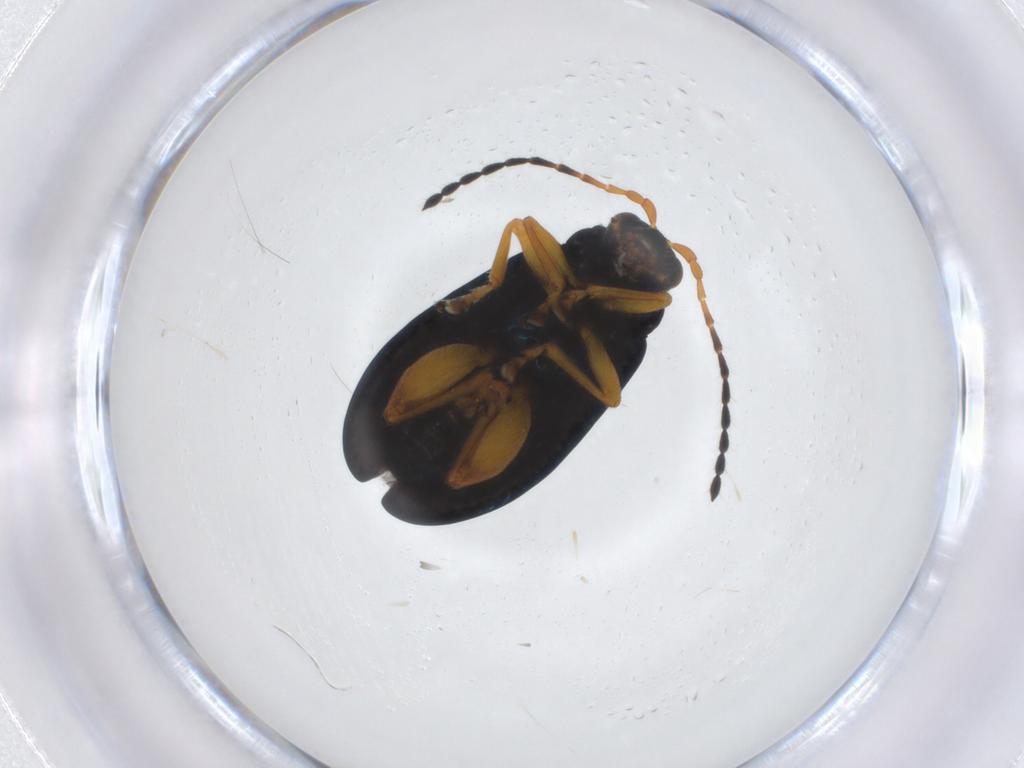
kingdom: Animalia
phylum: Arthropoda
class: Insecta
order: Coleoptera
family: Chrysomelidae
